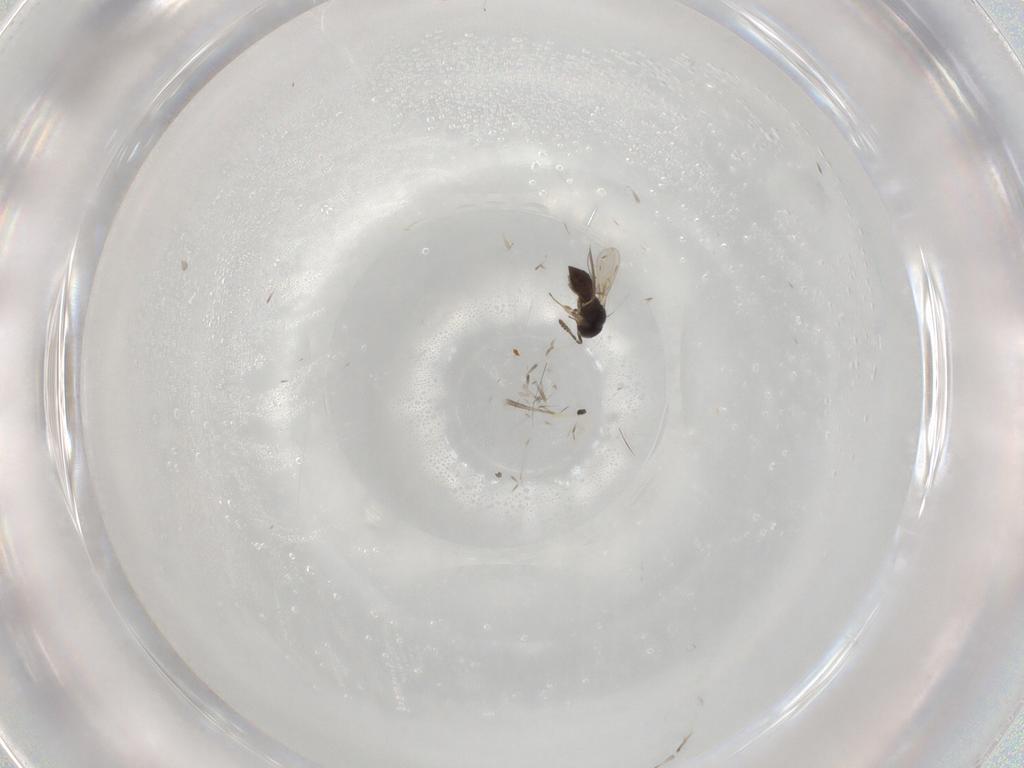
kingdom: Animalia
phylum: Arthropoda
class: Insecta
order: Hymenoptera
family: Scelionidae
